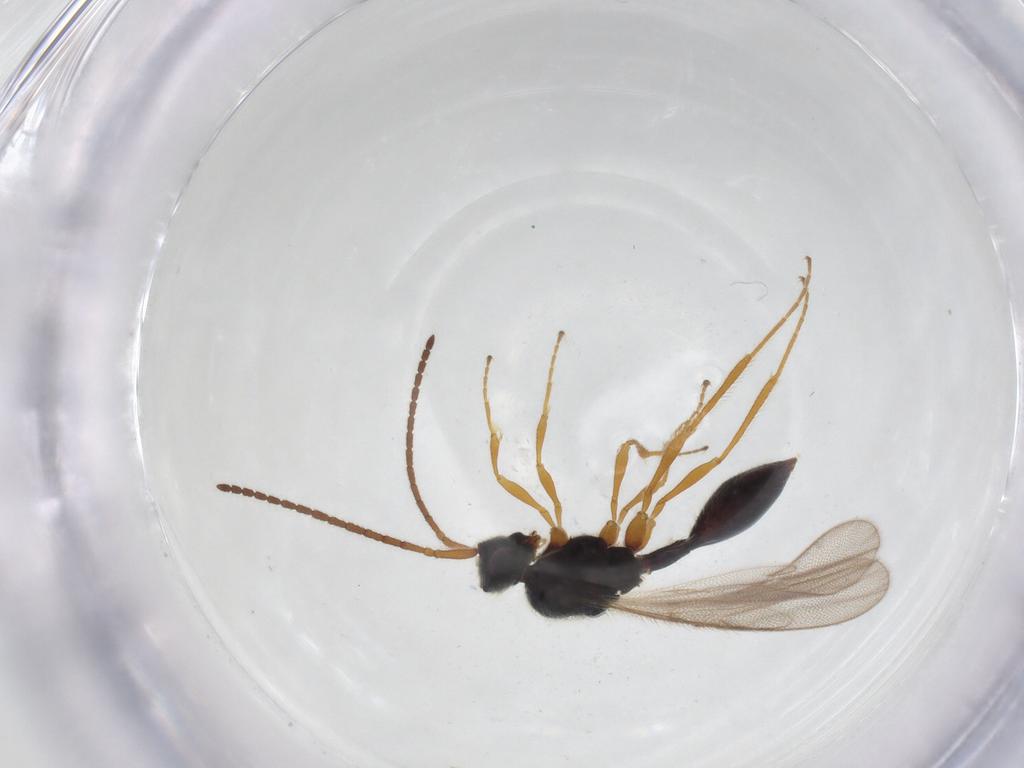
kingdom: Animalia
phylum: Arthropoda
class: Insecta
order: Hymenoptera
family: Diapriidae
